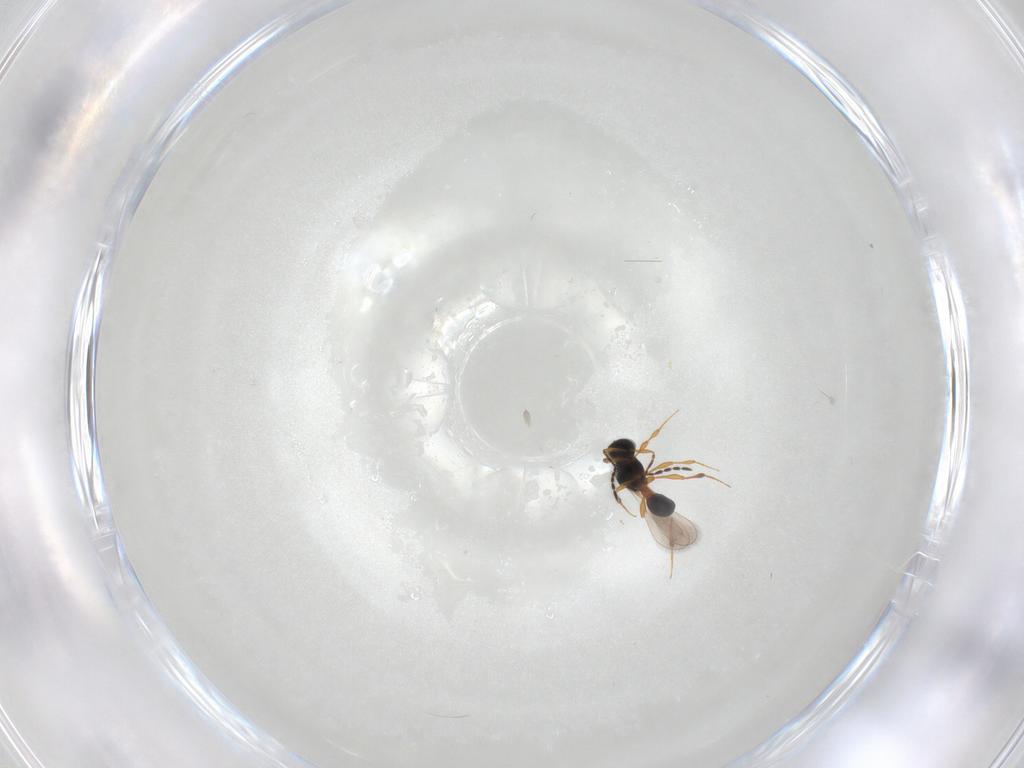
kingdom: Animalia
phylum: Arthropoda
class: Insecta
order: Hymenoptera
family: Platygastridae
